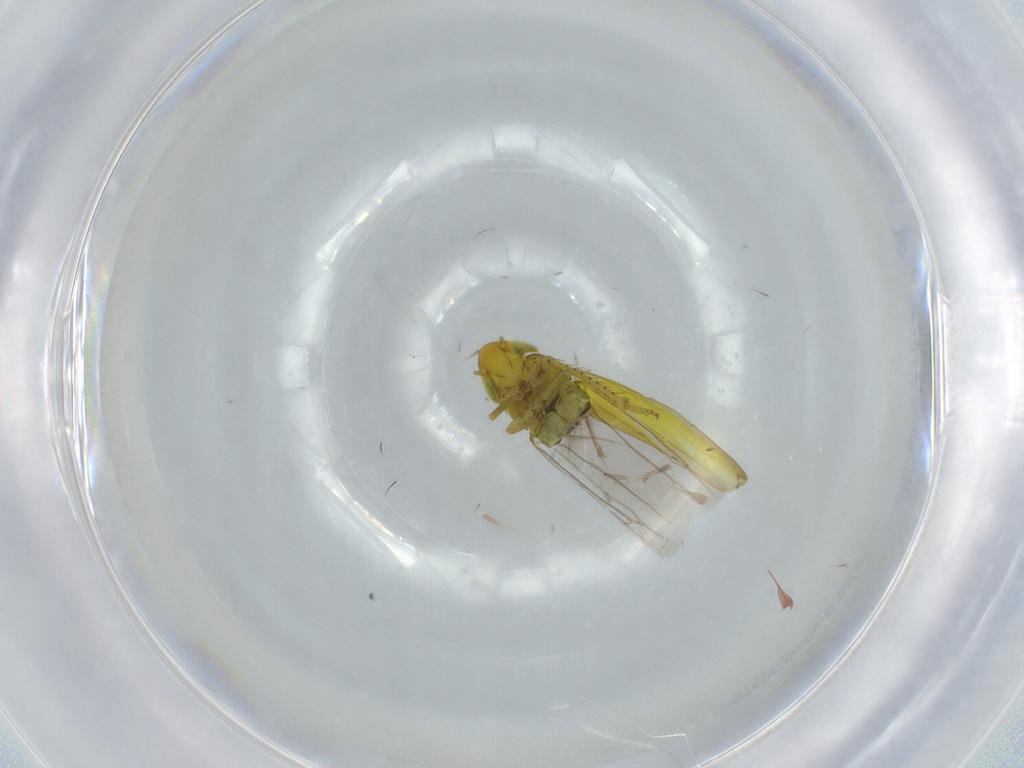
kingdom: Animalia
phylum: Arthropoda
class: Insecta
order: Hemiptera
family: Cicadellidae
